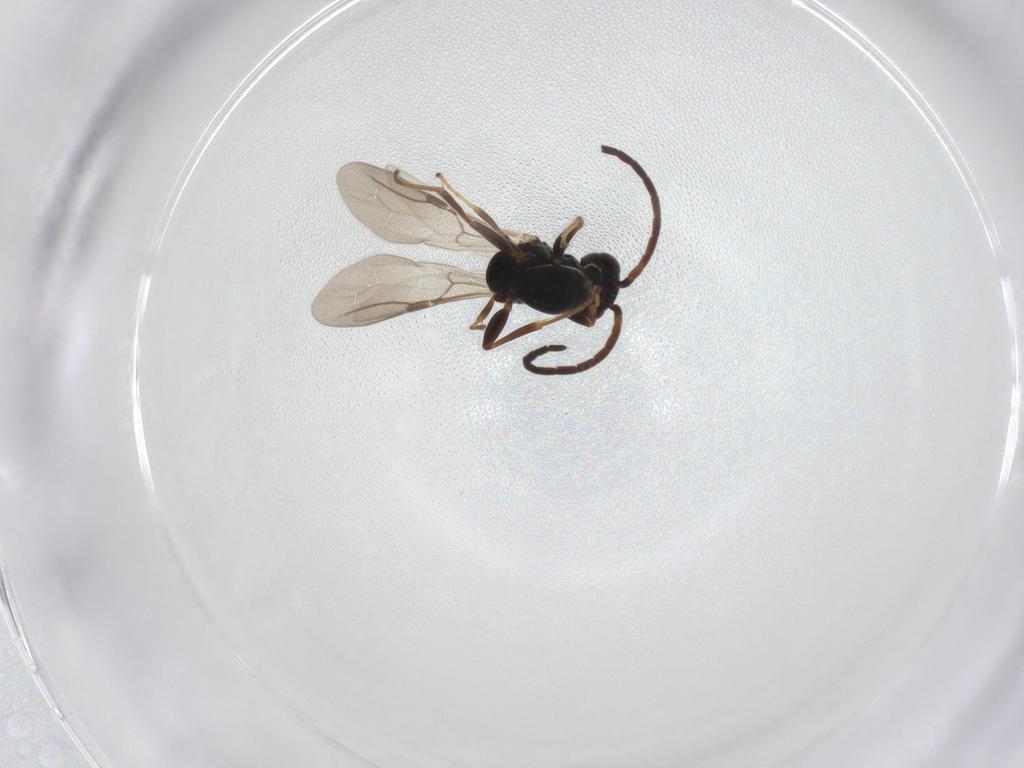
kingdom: Animalia
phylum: Arthropoda
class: Insecta
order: Hymenoptera
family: Bethylidae
